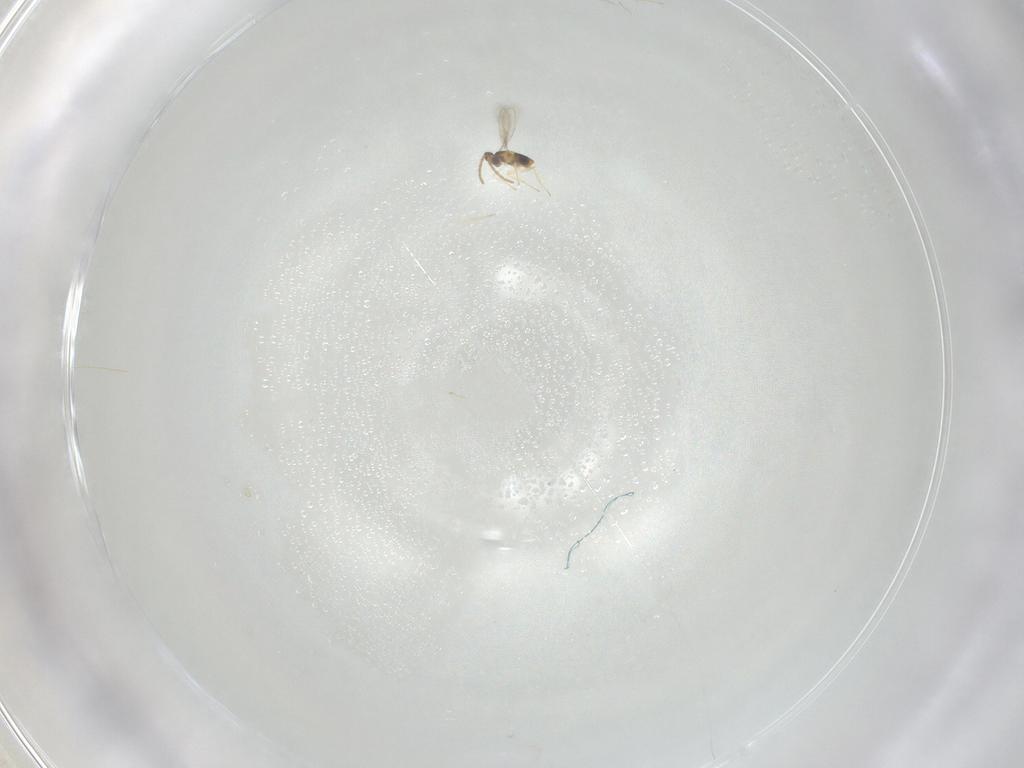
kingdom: Animalia
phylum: Arthropoda
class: Insecta
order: Hymenoptera
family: Aphelinidae
